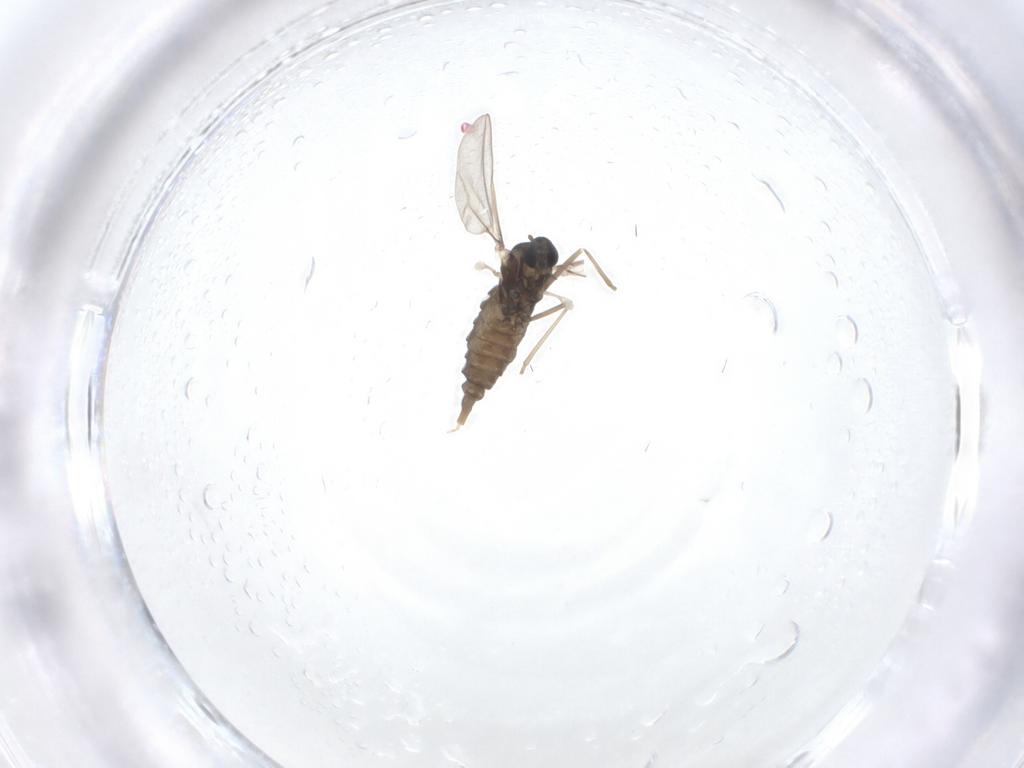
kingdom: Animalia
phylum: Arthropoda
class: Insecta
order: Diptera
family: Cecidomyiidae
